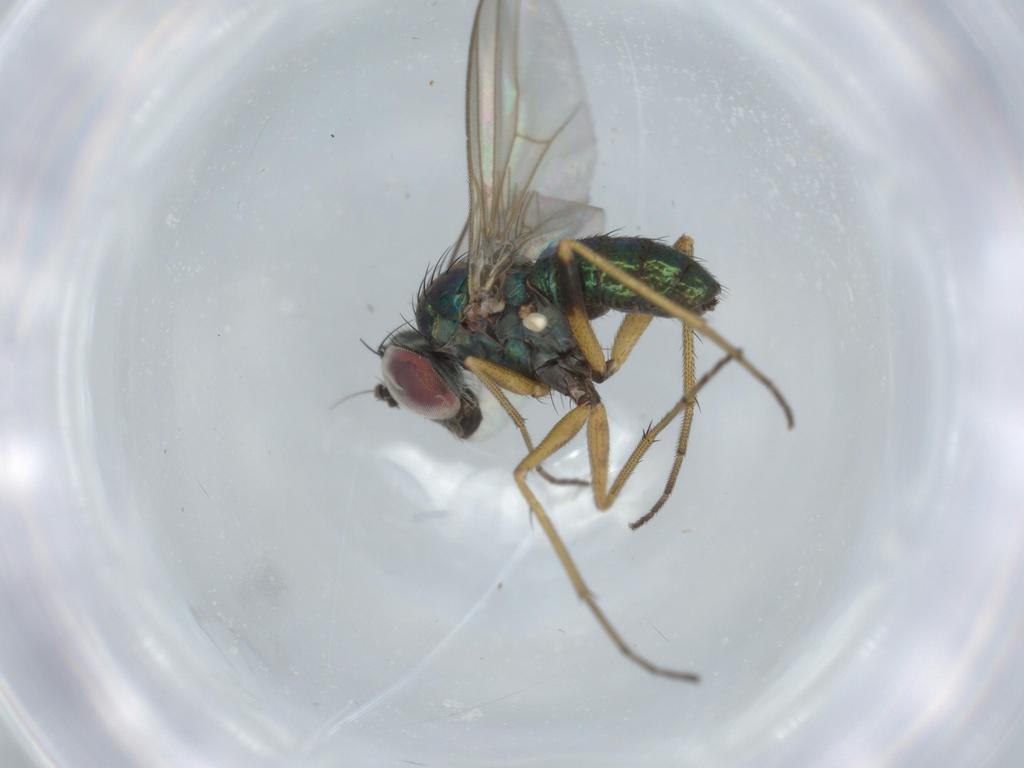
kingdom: Animalia
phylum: Arthropoda
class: Insecta
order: Diptera
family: Dolichopodidae
